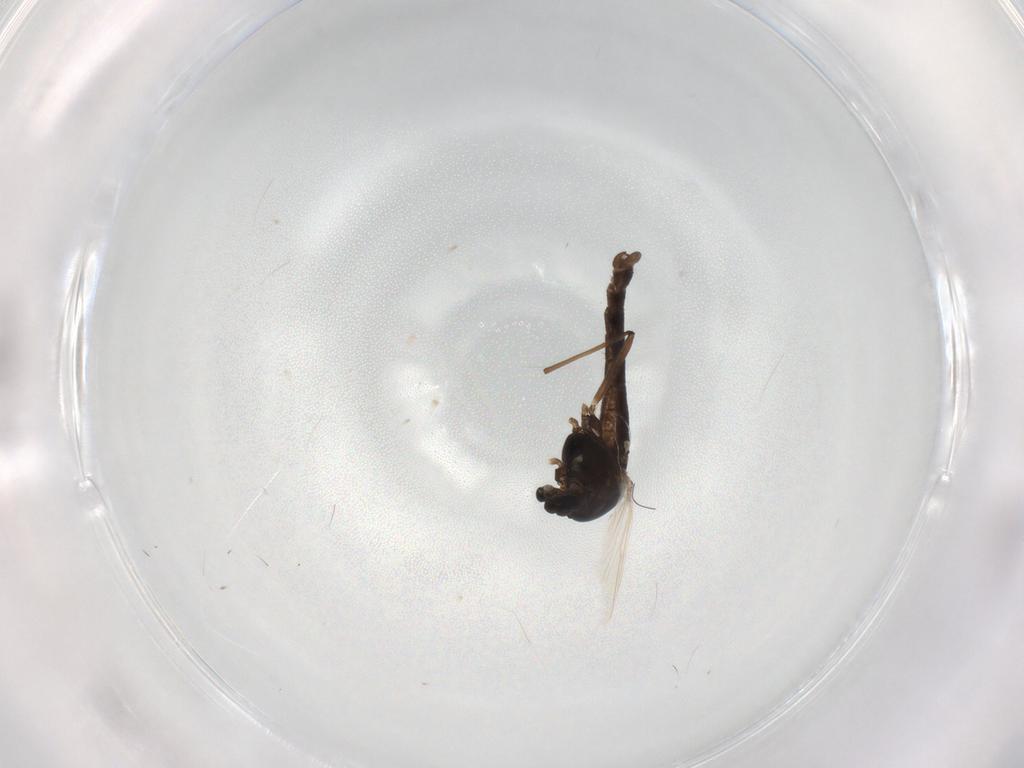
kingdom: Animalia
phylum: Arthropoda
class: Insecta
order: Diptera
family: Chironomidae
